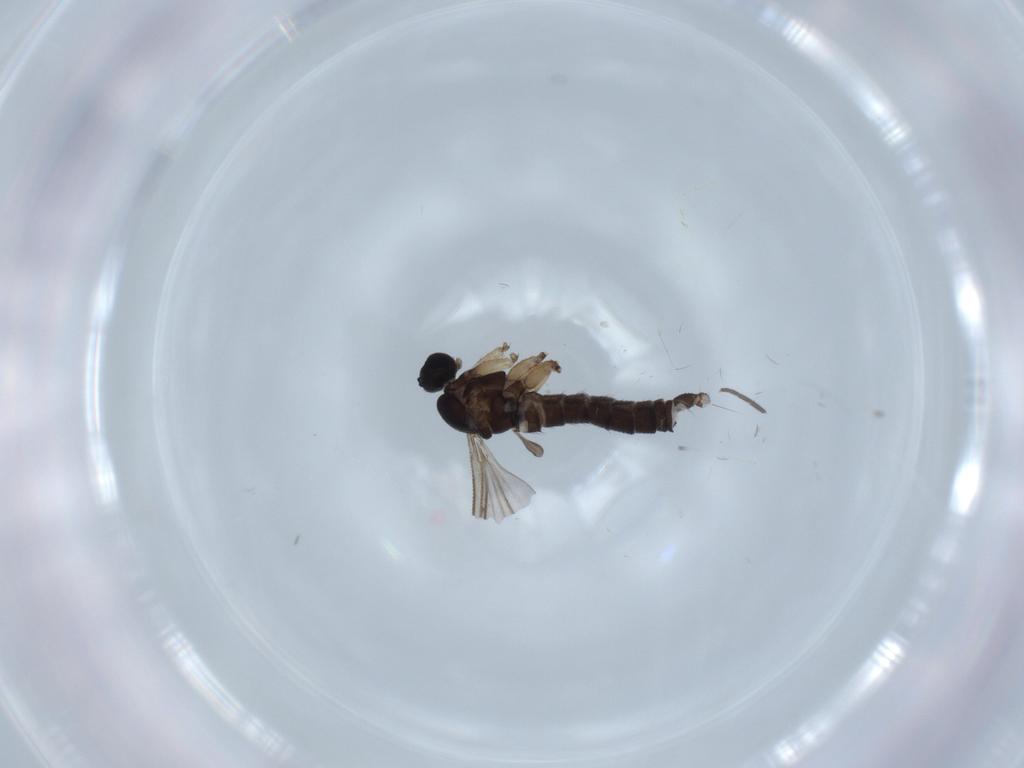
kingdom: Animalia
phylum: Arthropoda
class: Insecta
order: Diptera
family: Sciaridae
